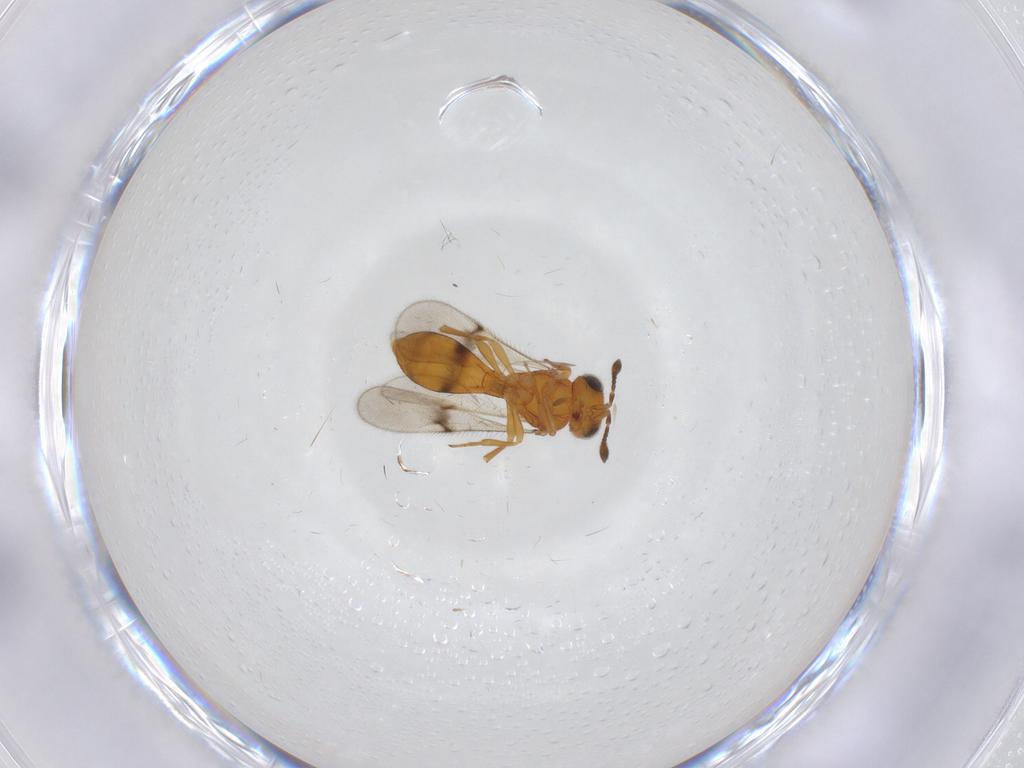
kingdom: Animalia
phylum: Arthropoda
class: Insecta
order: Hymenoptera
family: Scelionidae
